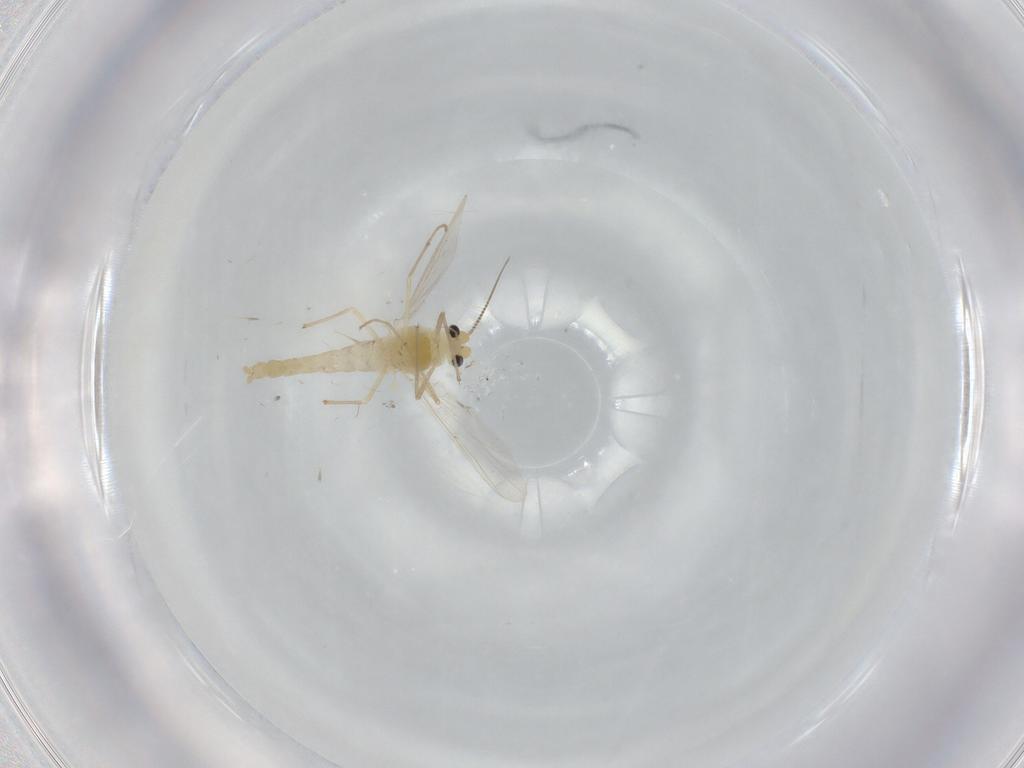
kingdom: Animalia
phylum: Arthropoda
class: Insecta
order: Diptera
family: Chironomidae
